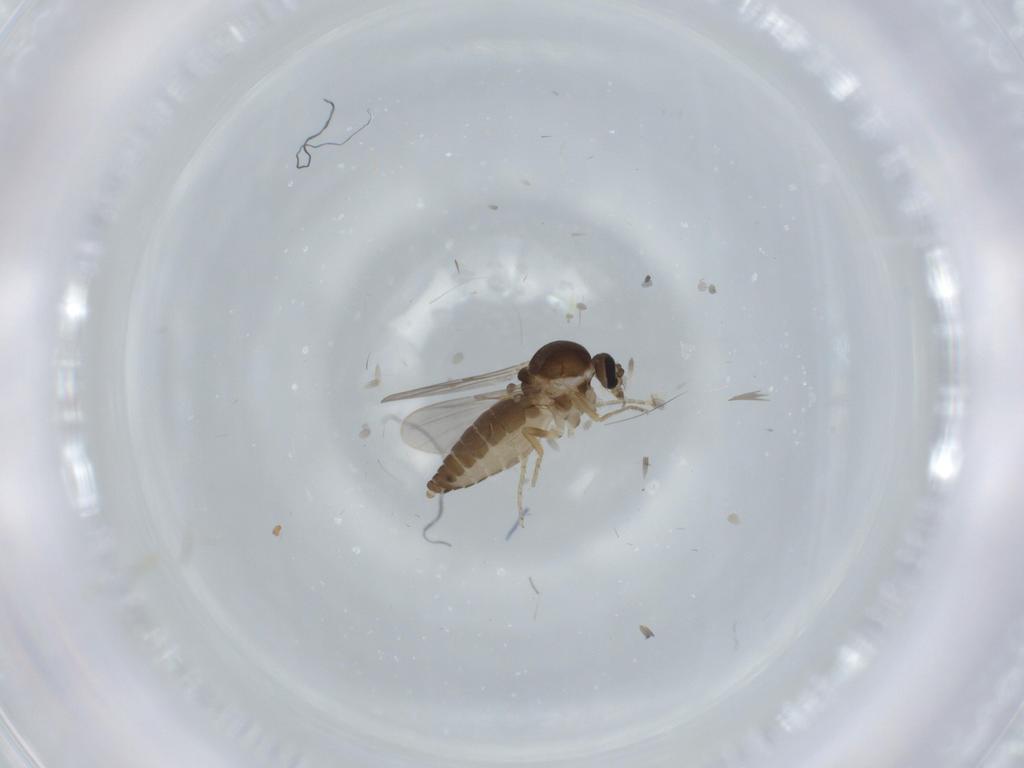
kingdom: Animalia
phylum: Arthropoda
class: Insecta
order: Diptera
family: Ceratopogonidae
